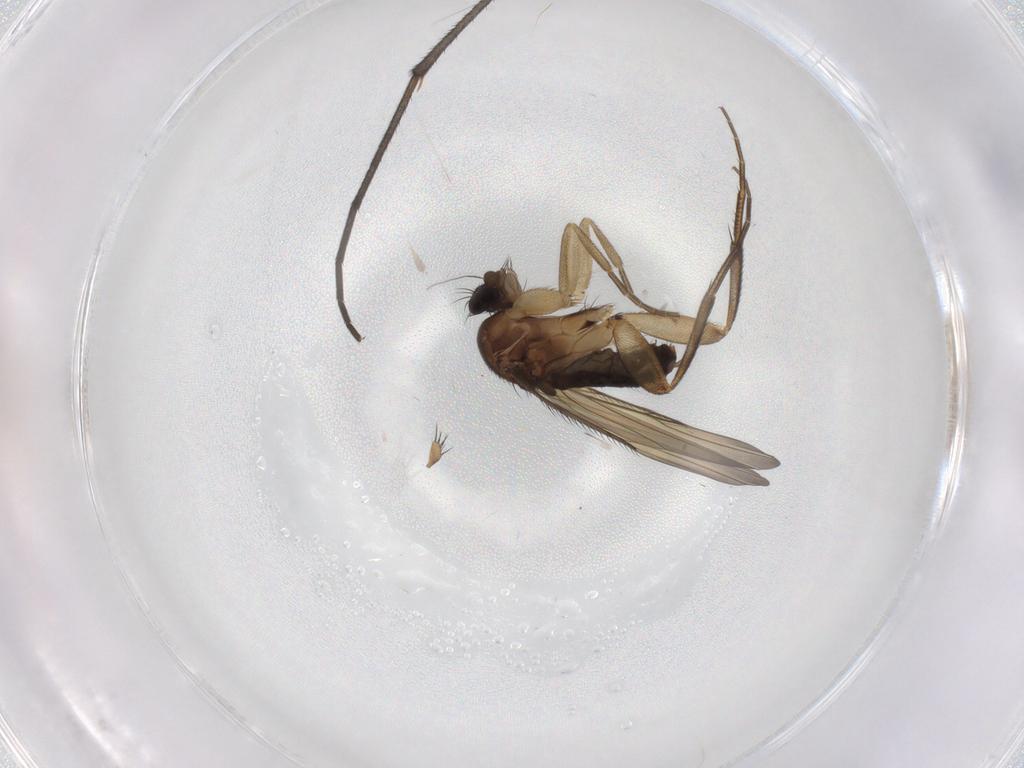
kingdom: Animalia
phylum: Arthropoda
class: Insecta
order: Diptera
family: Phoridae
